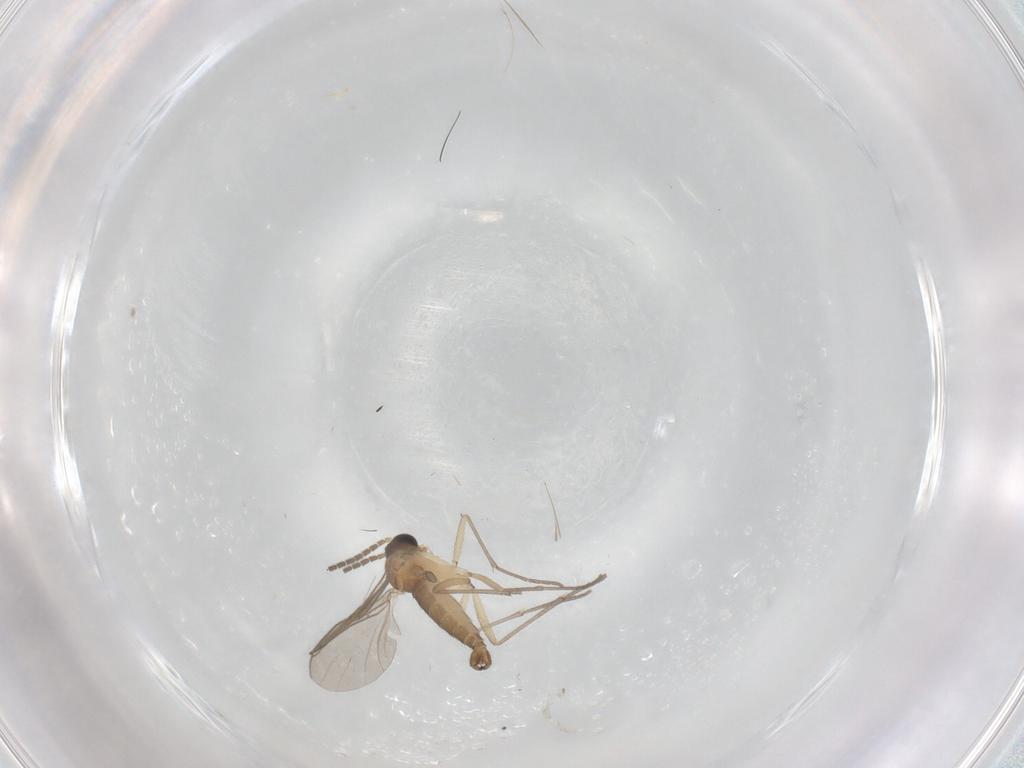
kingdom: Animalia
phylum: Arthropoda
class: Insecta
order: Diptera
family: Sciaridae
